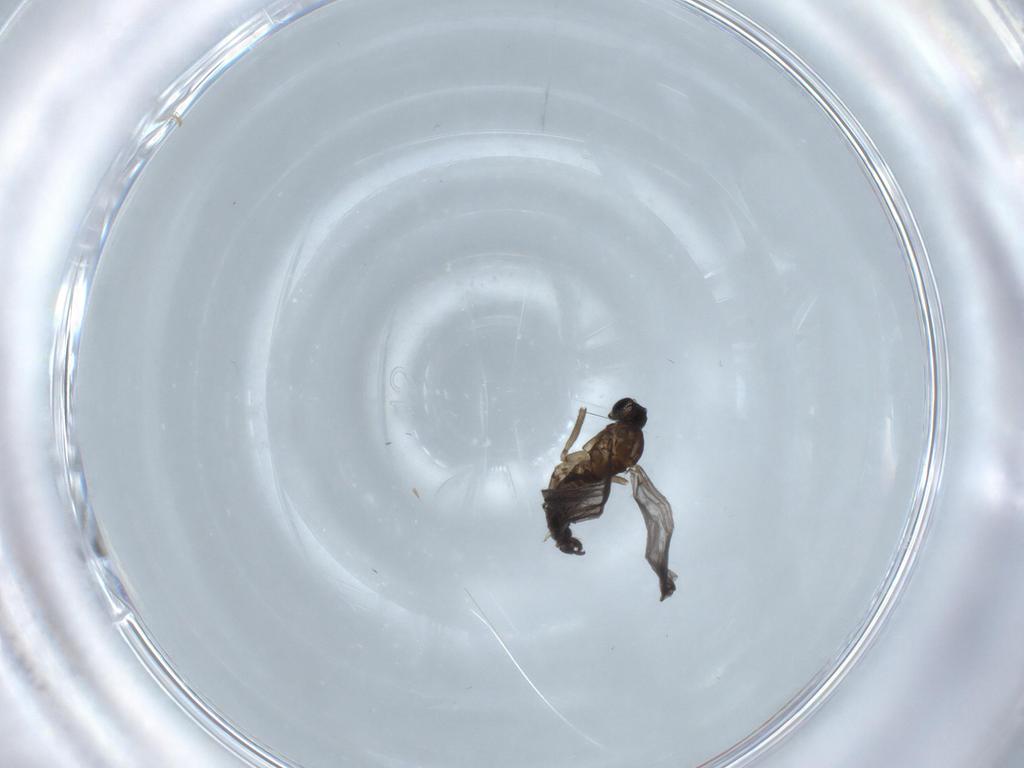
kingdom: Animalia
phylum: Arthropoda
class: Insecta
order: Diptera
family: Sciaridae
